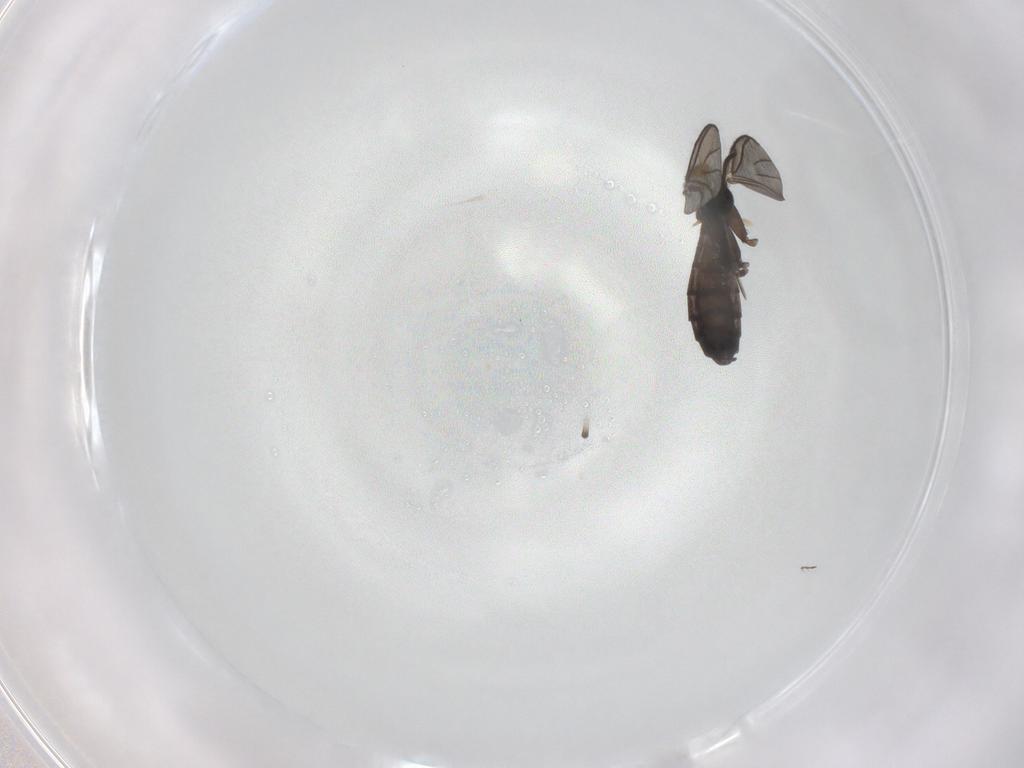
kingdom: Animalia
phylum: Arthropoda
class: Insecta
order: Diptera
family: Keroplatidae
